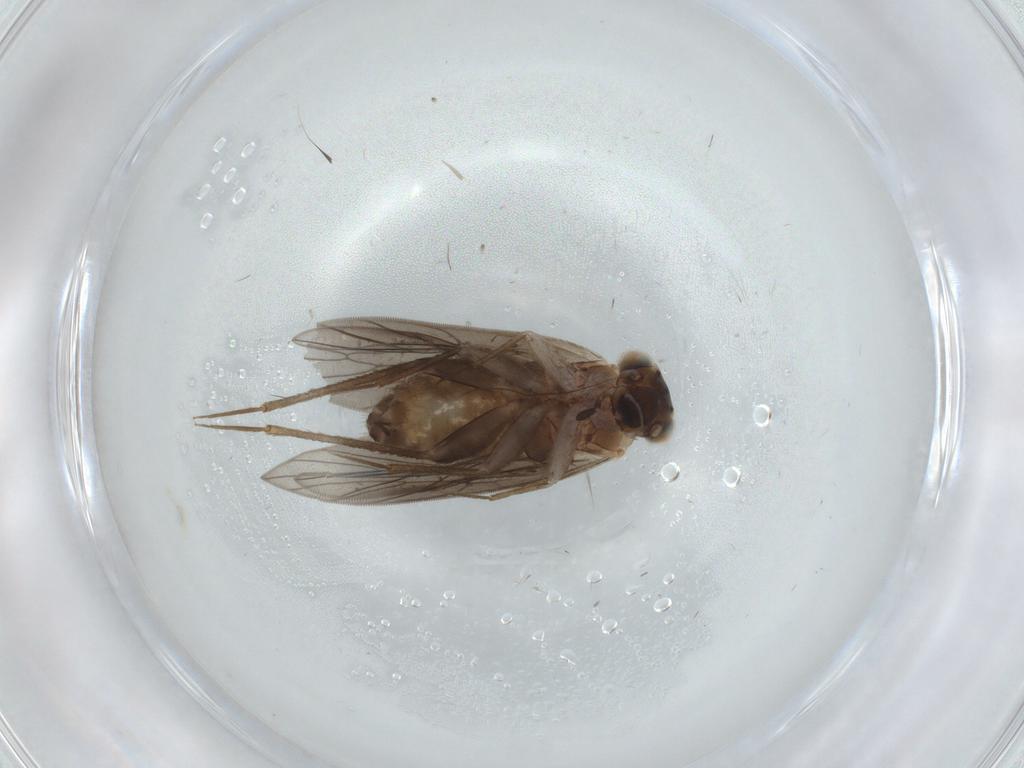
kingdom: Animalia
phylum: Arthropoda
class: Insecta
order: Psocodea
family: Lepidopsocidae
